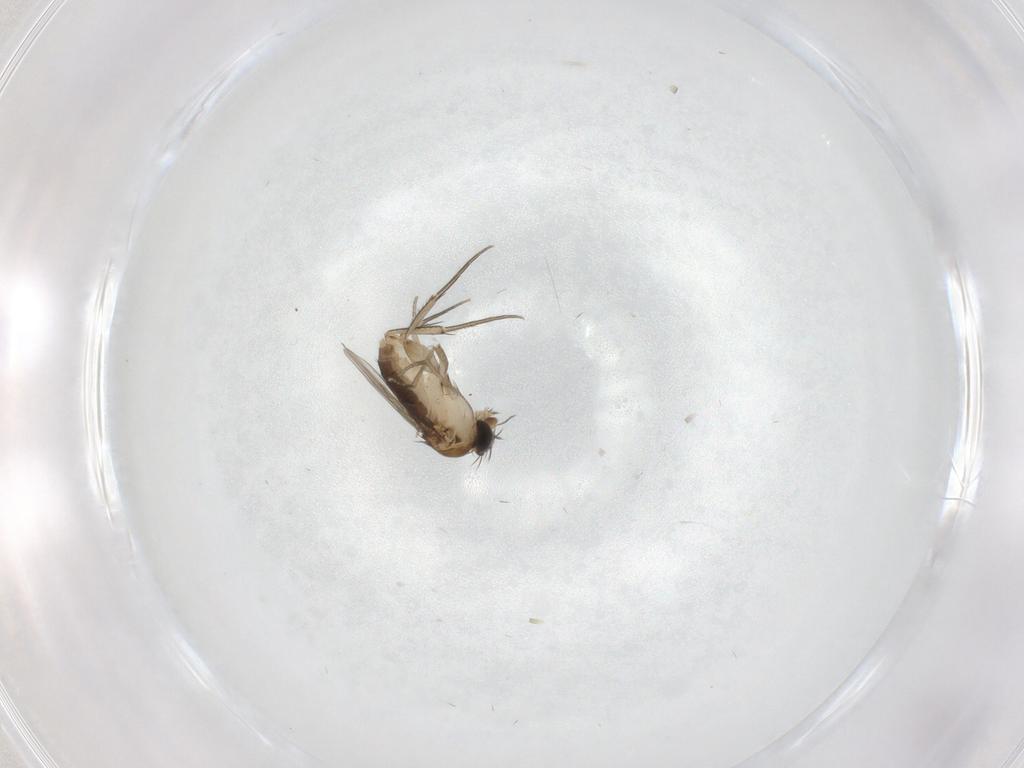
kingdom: Animalia
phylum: Arthropoda
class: Insecta
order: Diptera
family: Phoridae
